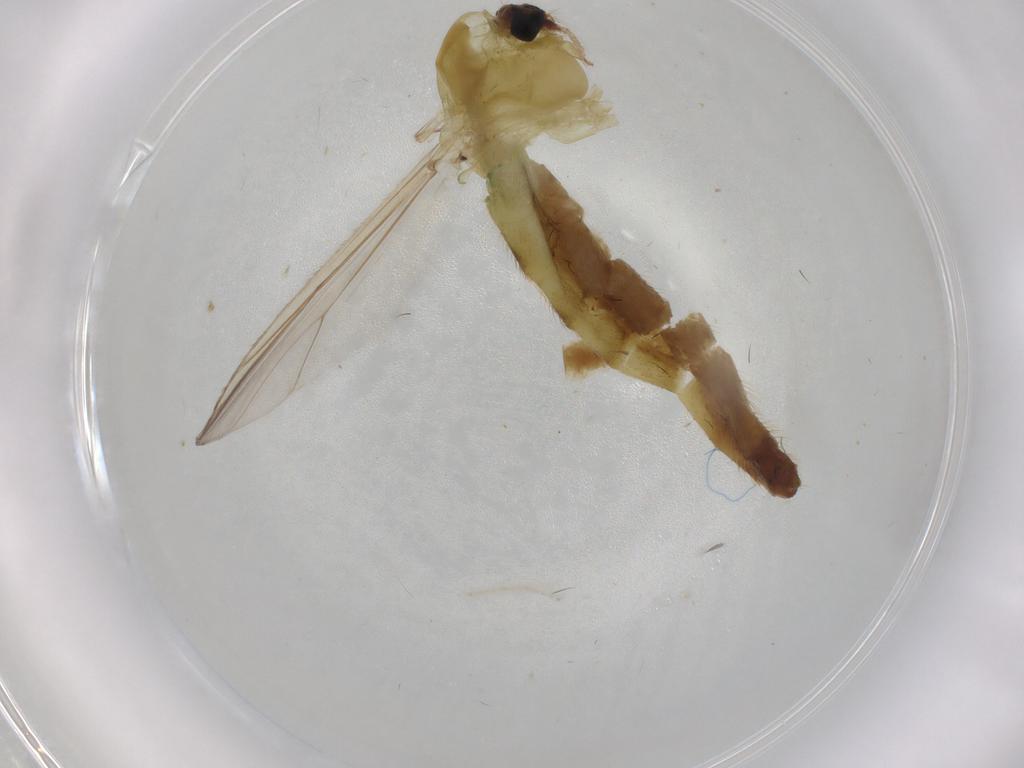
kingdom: Animalia
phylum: Arthropoda
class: Insecta
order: Diptera
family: Chironomidae
